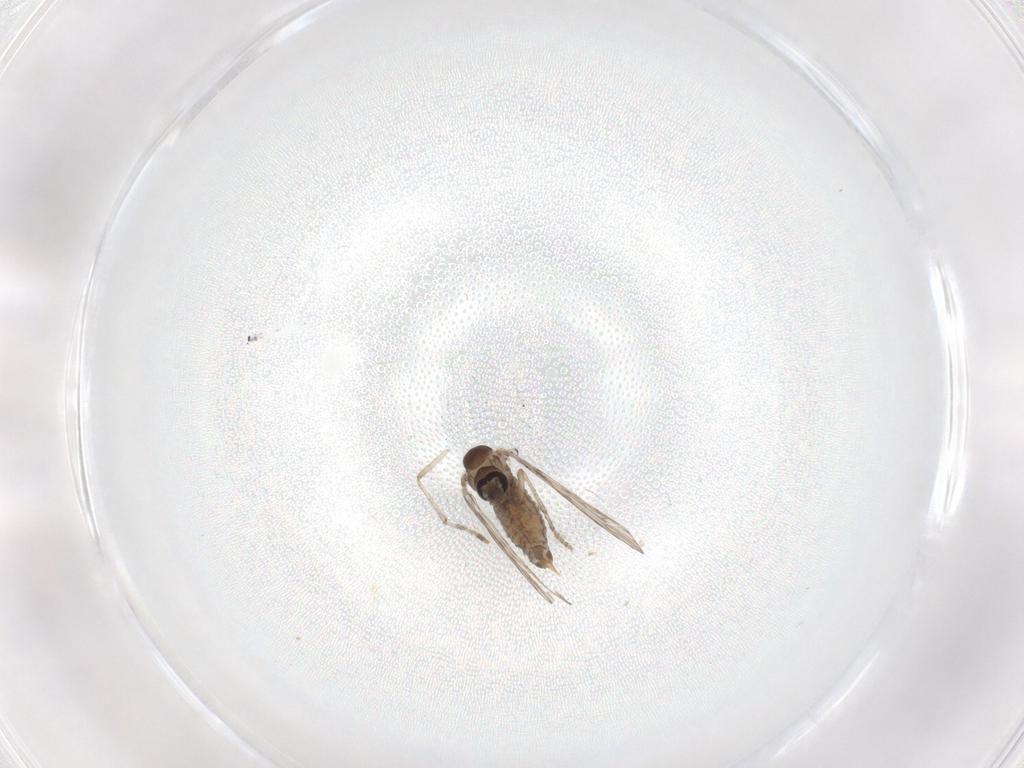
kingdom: Animalia
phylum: Arthropoda
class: Insecta
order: Diptera
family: Psychodidae
